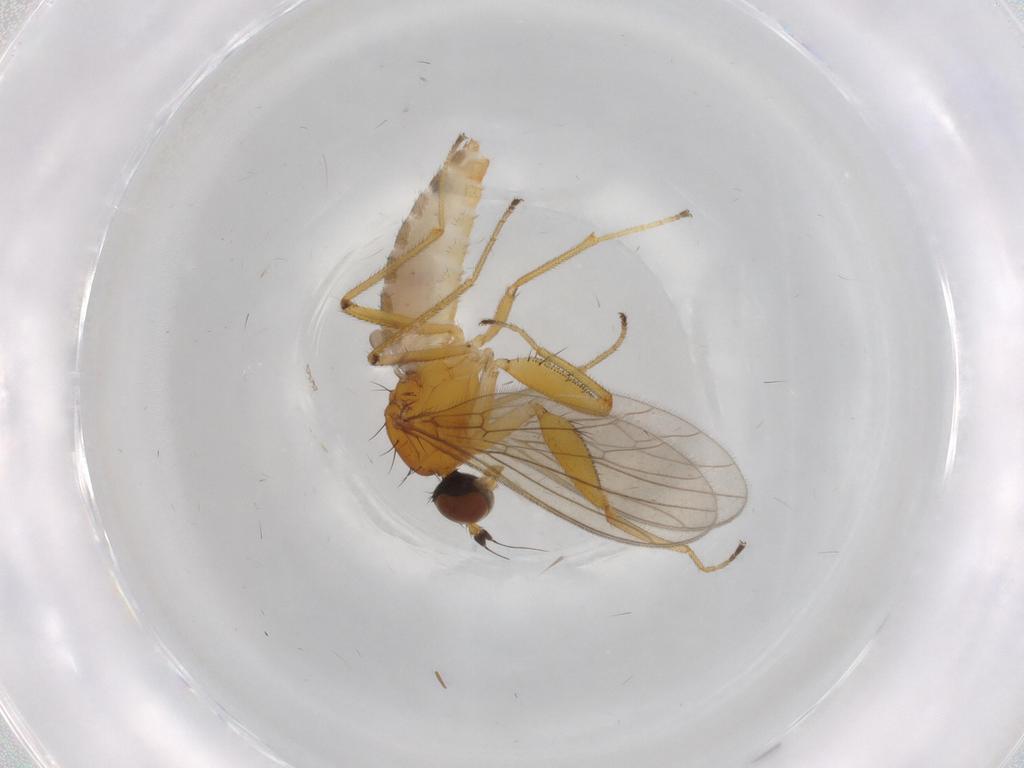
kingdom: Animalia
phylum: Arthropoda
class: Insecta
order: Diptera
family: Empididae
